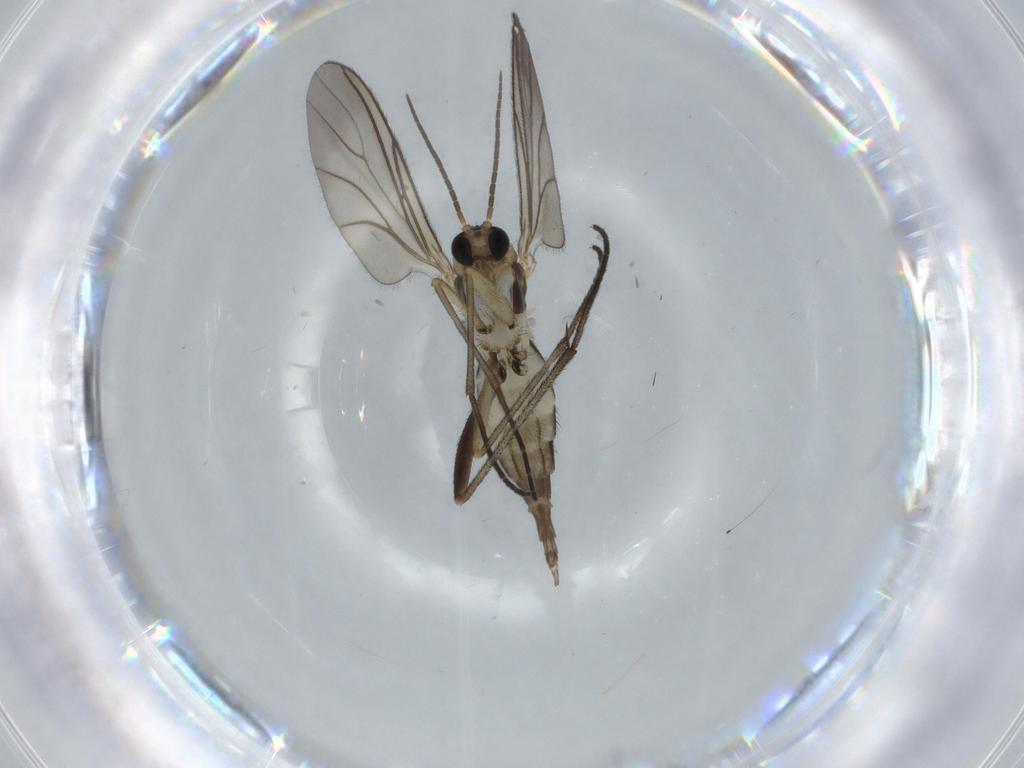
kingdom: Animalia
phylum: Arthropoda
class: Insecta
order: Diptera
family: Sciaridae
